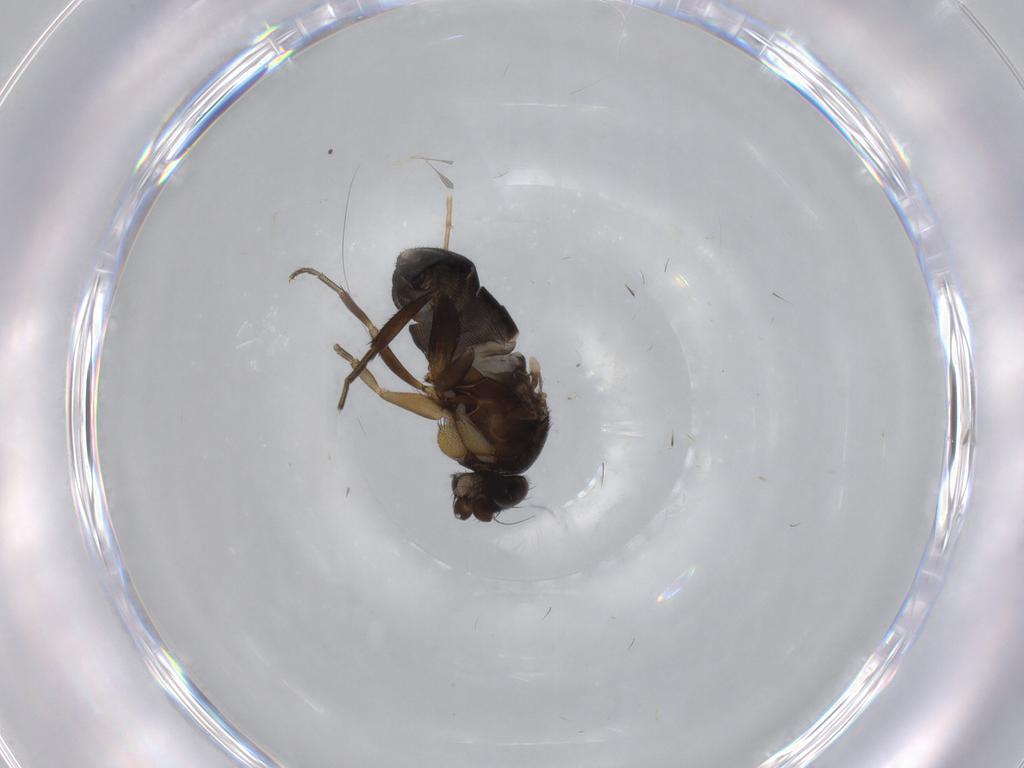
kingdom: Animalia
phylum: Arthropoda
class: Insecta
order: Diptera
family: Phoridae
